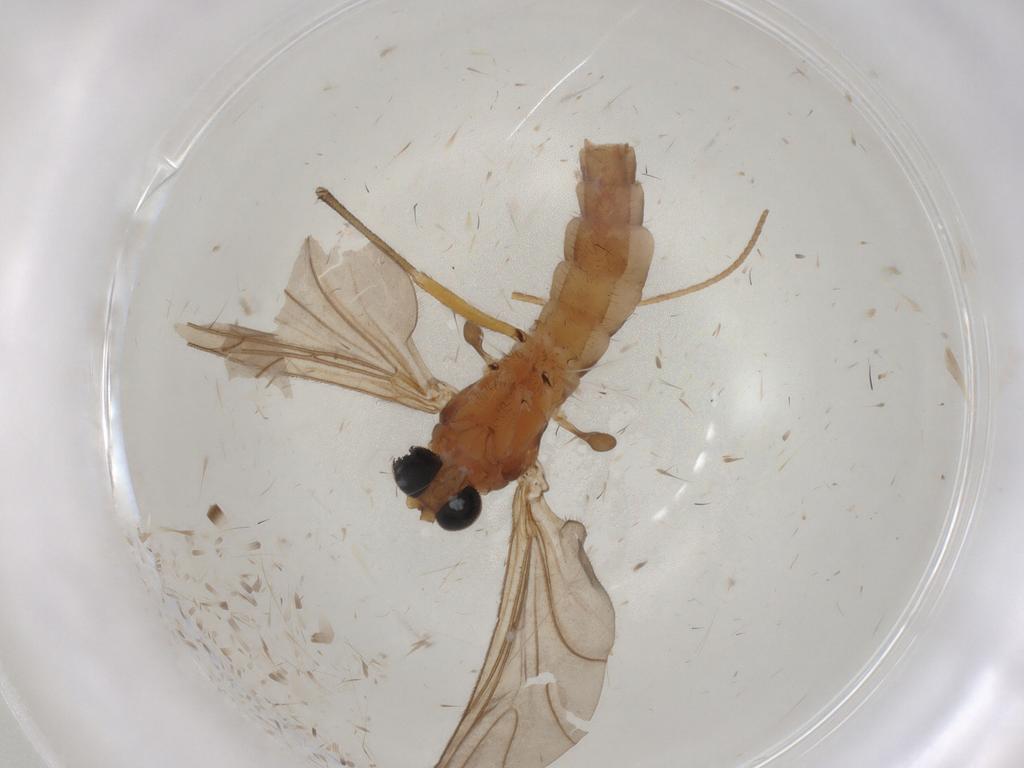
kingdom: Animalia
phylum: Arthropoda
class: Insecta
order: Diptera
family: Sciaridae
